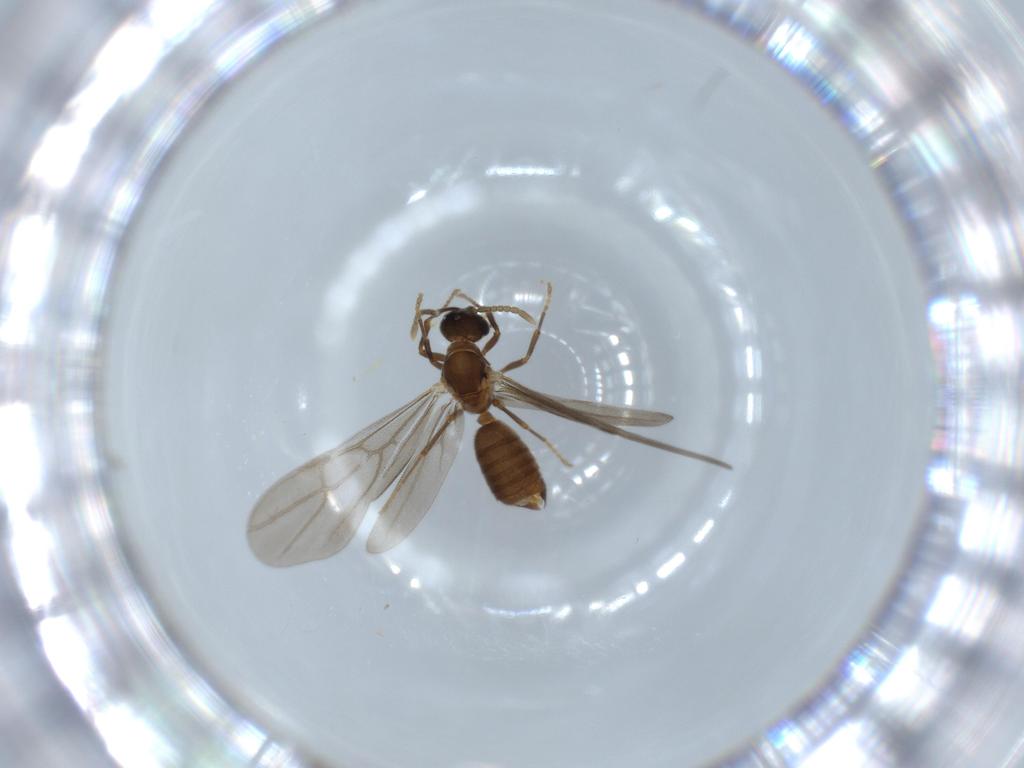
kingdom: Animalia
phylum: Arthropoda
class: Insecta
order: Hymenoptera
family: Formicidae
